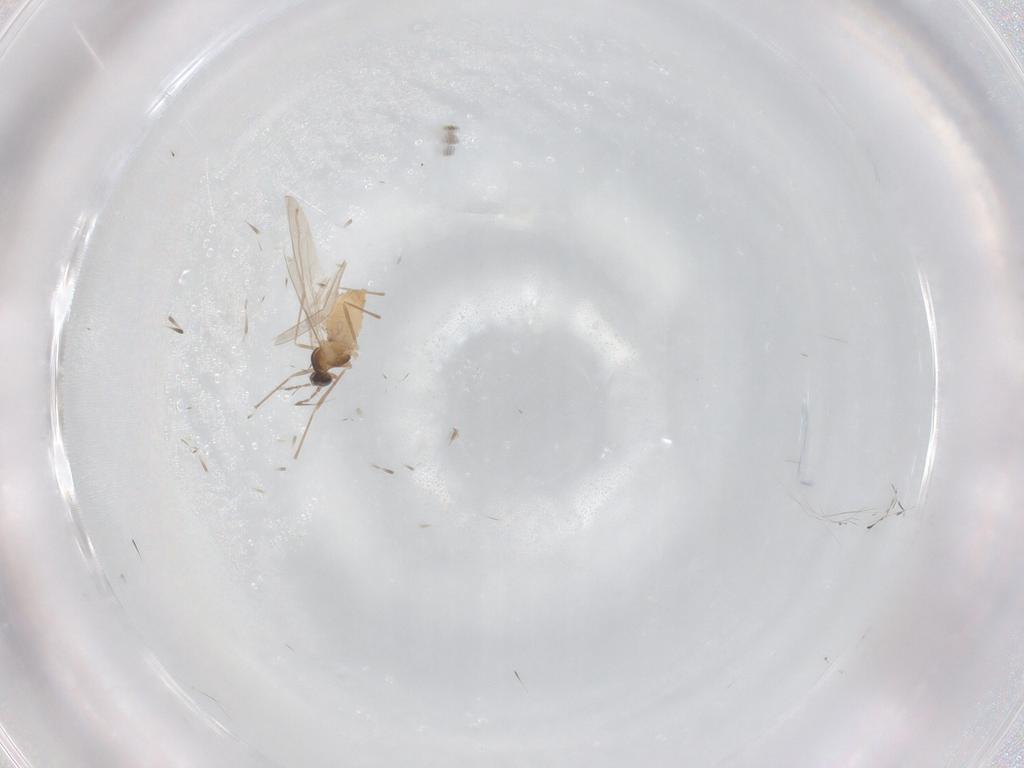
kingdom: Animalia
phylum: Arthropoda
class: Insecta
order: Diptera
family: Cecidomyiidae
